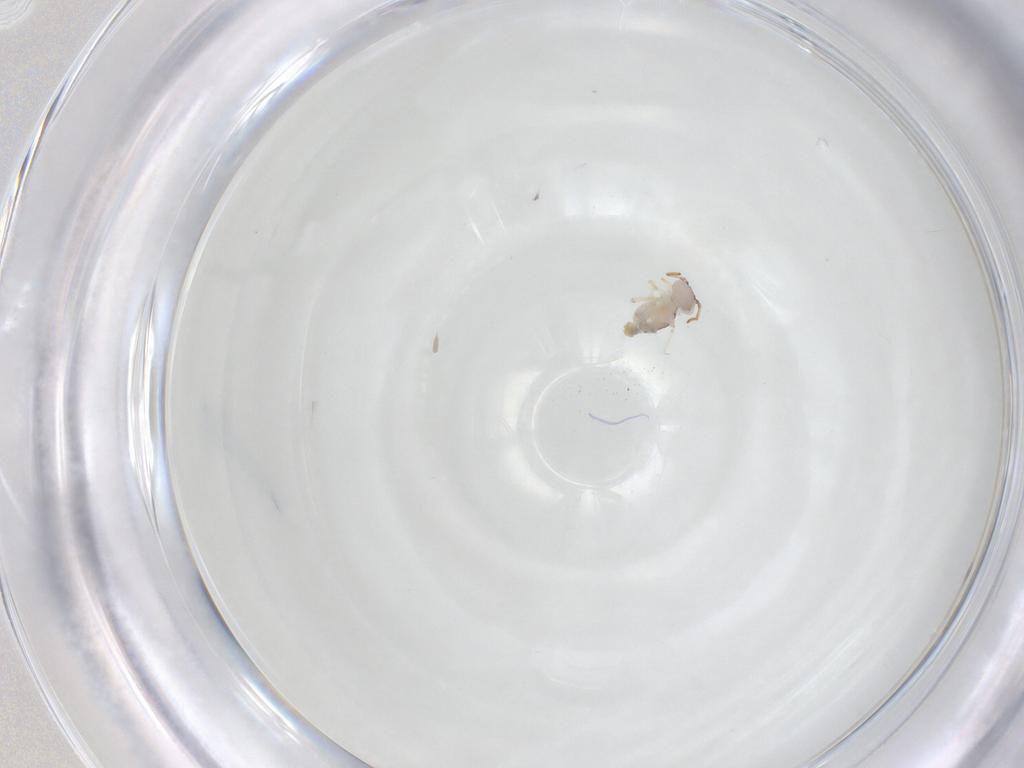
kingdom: Animalia
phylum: Arthropoda
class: Collembola
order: Symphypleona
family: Bourletiellidae
